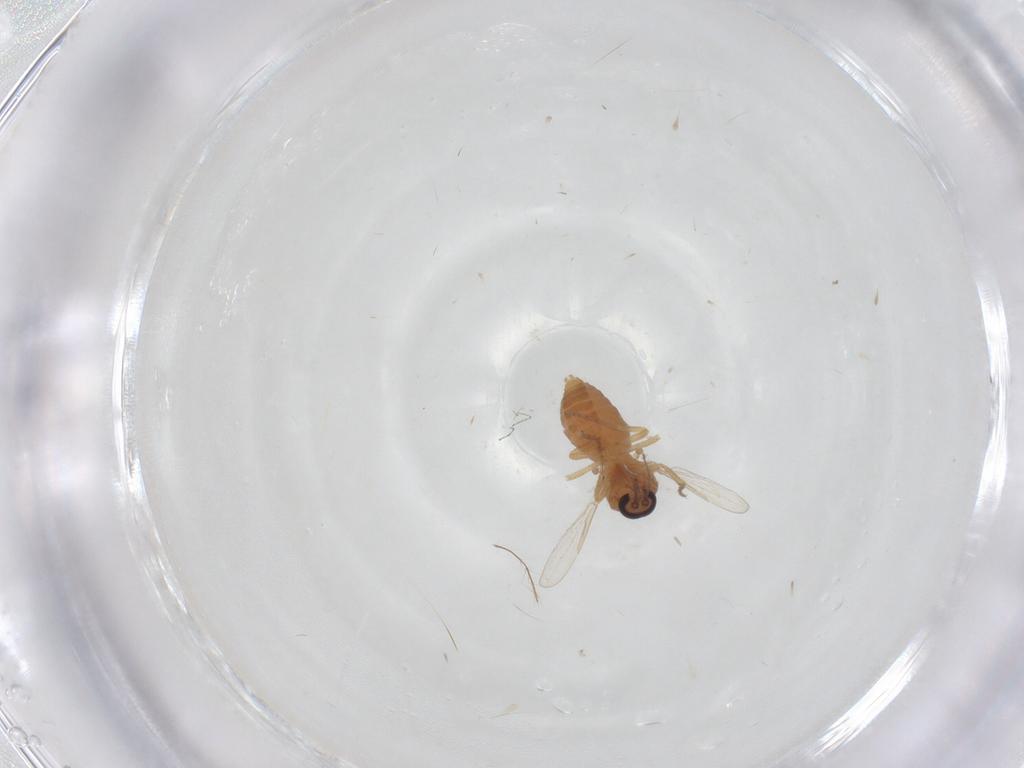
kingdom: Animalia
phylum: Arthropoda
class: Insecta
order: Diptera
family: Ceratopogonidae
